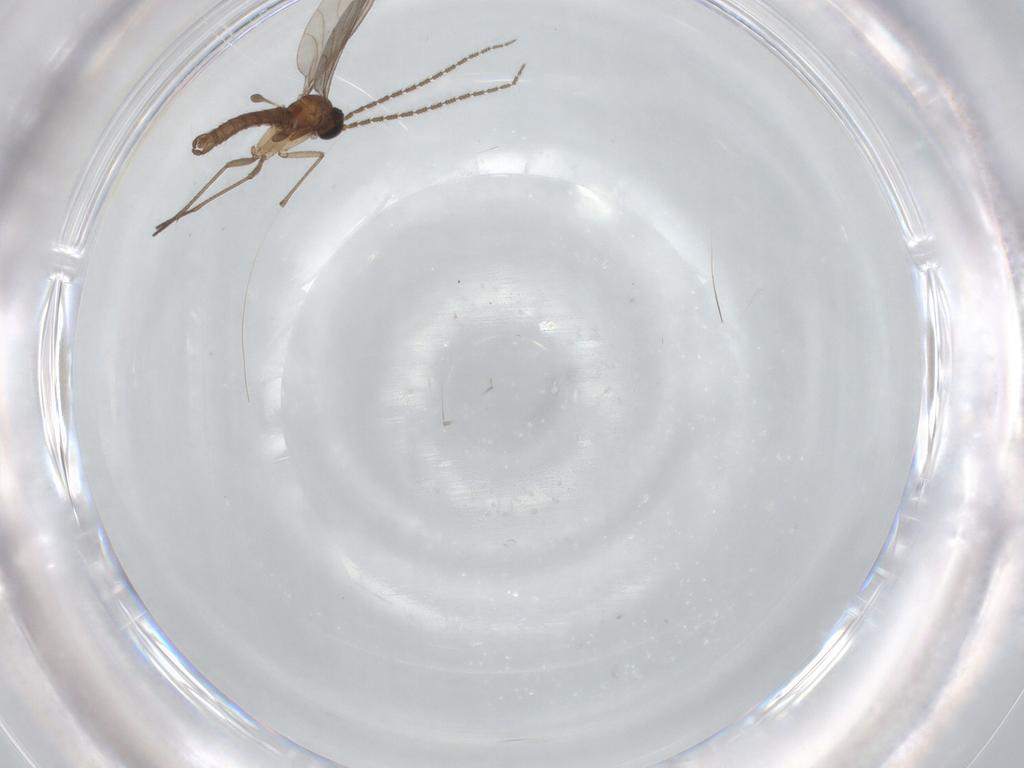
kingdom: Animalia
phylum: Arthropoda
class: Insecta
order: Diptera
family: Sciaridae
